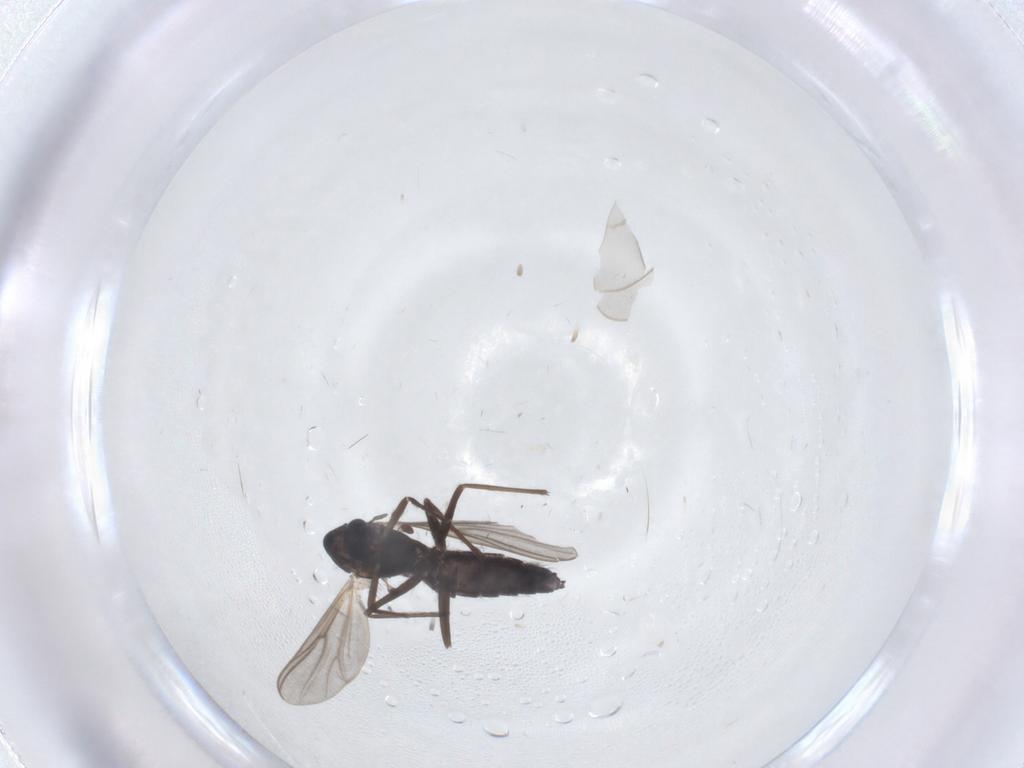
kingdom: Animalia
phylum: Arthropoda
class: Insecta
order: Diptera
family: Chironomidae
